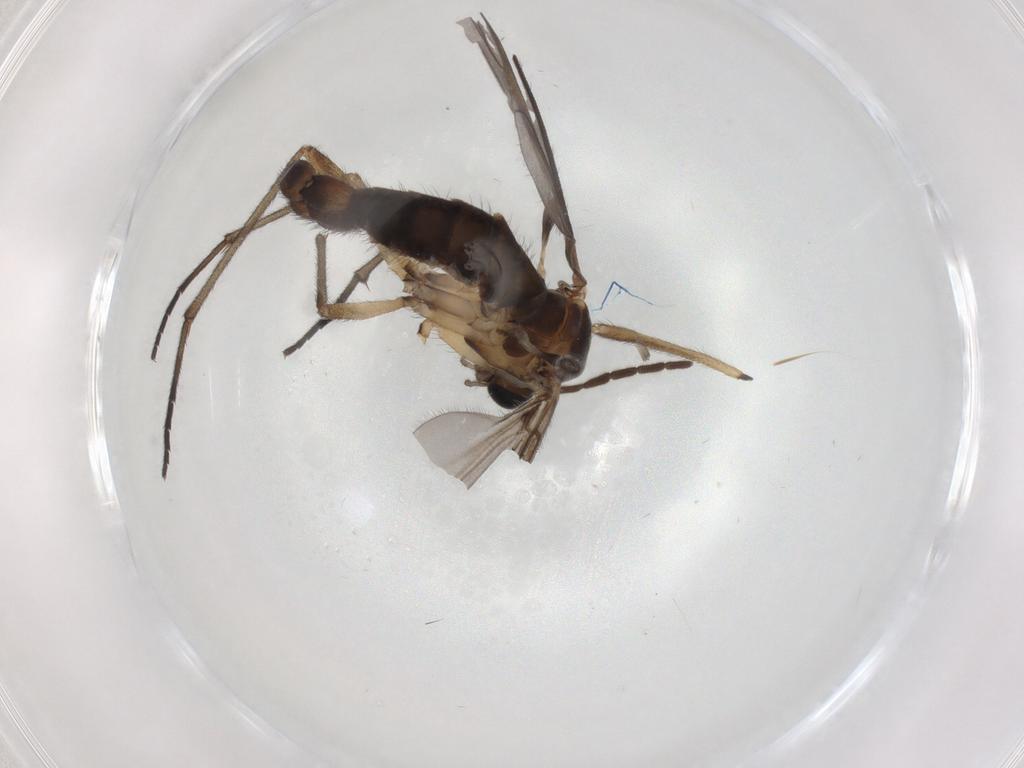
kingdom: Animalia
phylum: Arthropoda
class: Insecta
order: Diptera
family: Sciaridae
